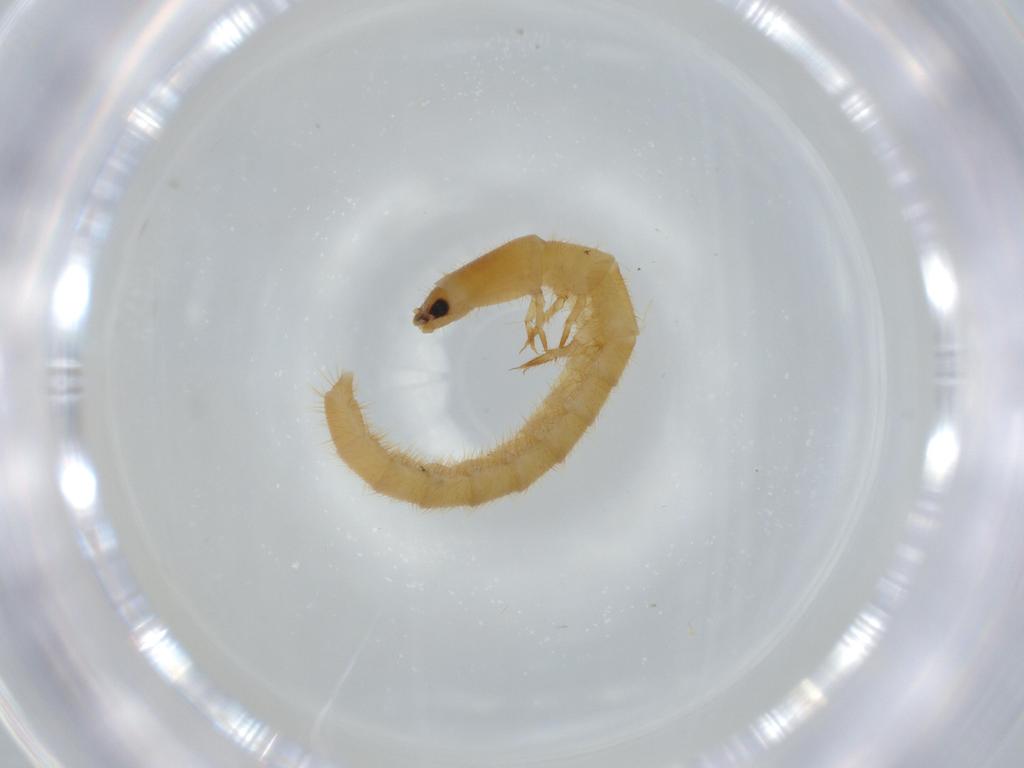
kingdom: Animalia
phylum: Arthropoda
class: Insecta
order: Coleoptera
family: Phengodidae
